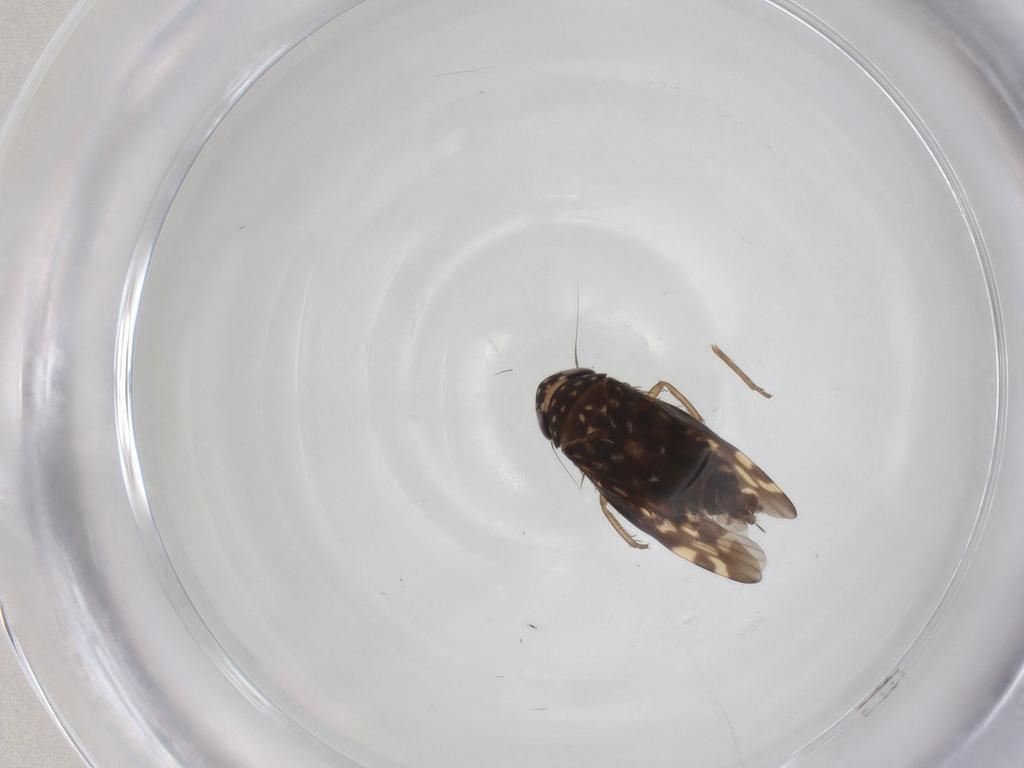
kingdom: Animalia
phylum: Arthropoda
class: Insecta
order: Hemiptera
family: Cicadellidae
